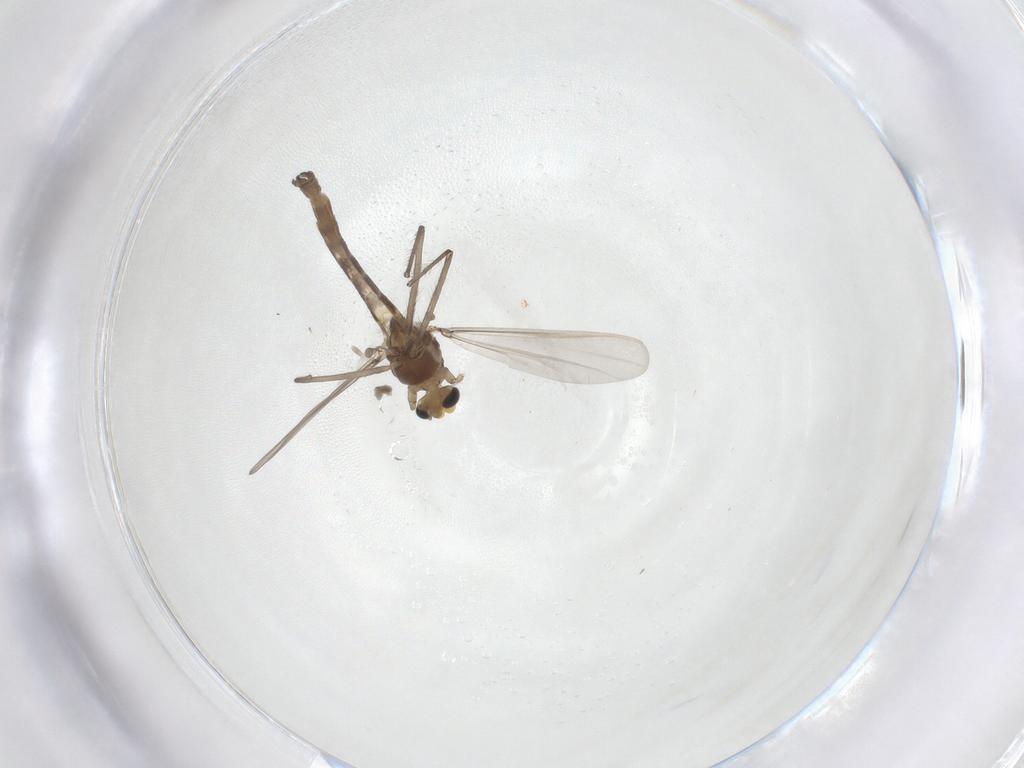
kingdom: Animalia
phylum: Arthropoda
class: Insecta
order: Diptera
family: Chironomidae
